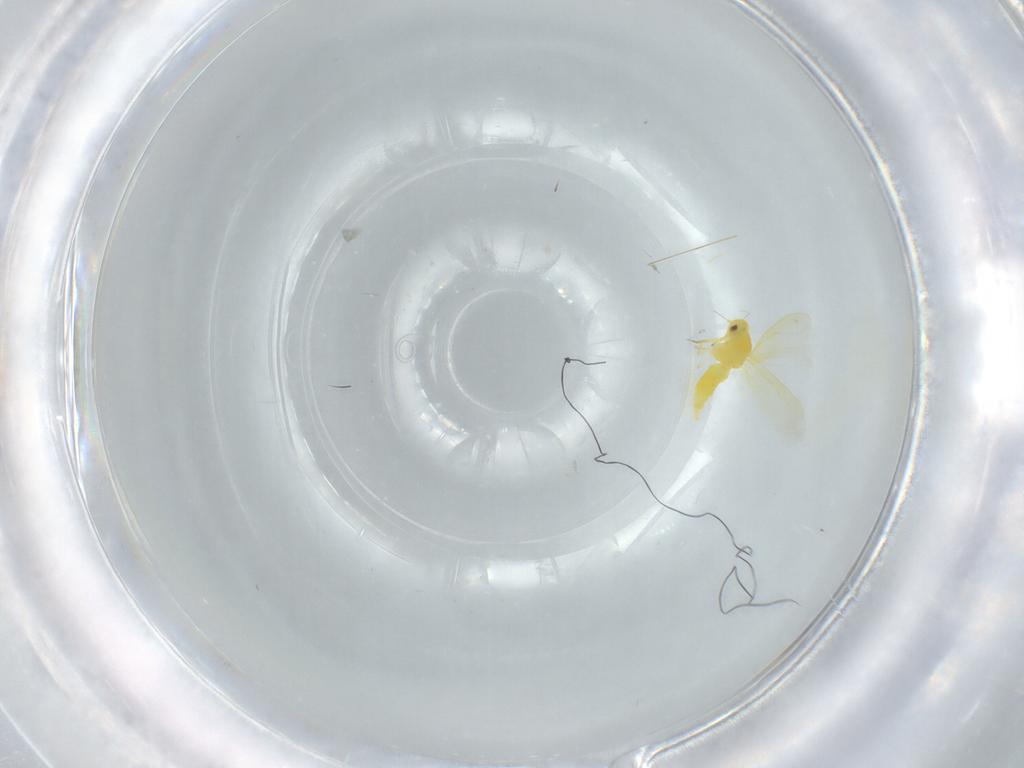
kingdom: Animalia
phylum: Arthropoda
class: Insecta
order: Hemiptera
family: Aleyrodidae
